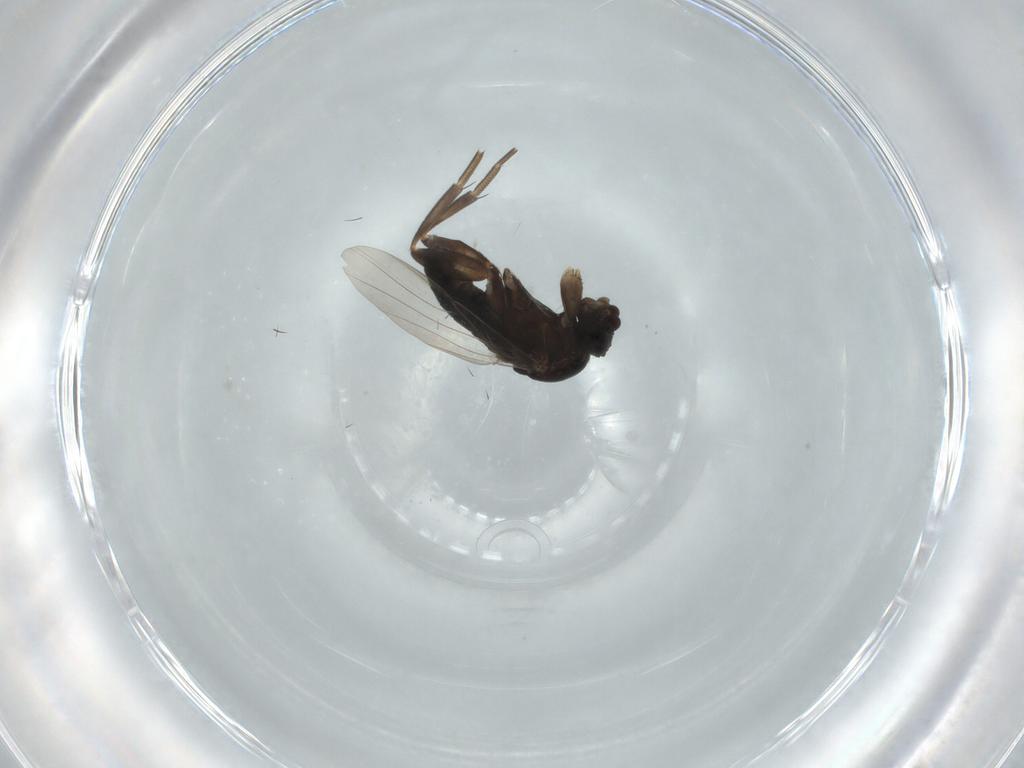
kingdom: Animalia
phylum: Arthropoda
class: Insecta
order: Diptera
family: Phoridae
